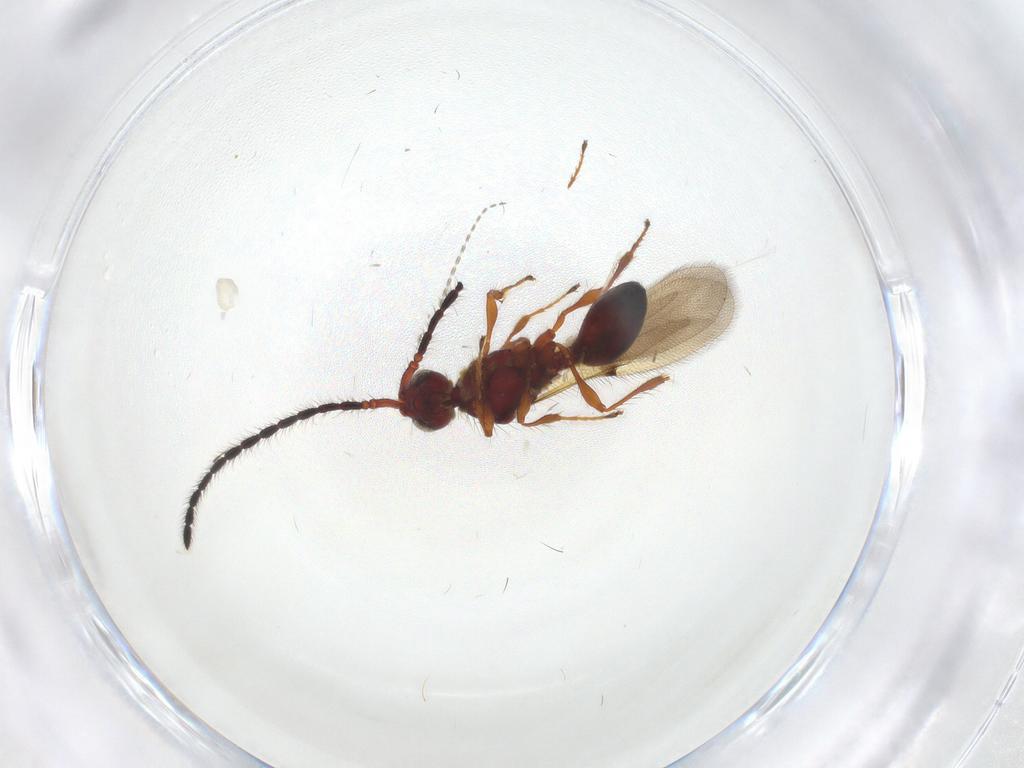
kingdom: Animalia
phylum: Arthropoda
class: Insecta
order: Hymenoptera
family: Diapriidae
